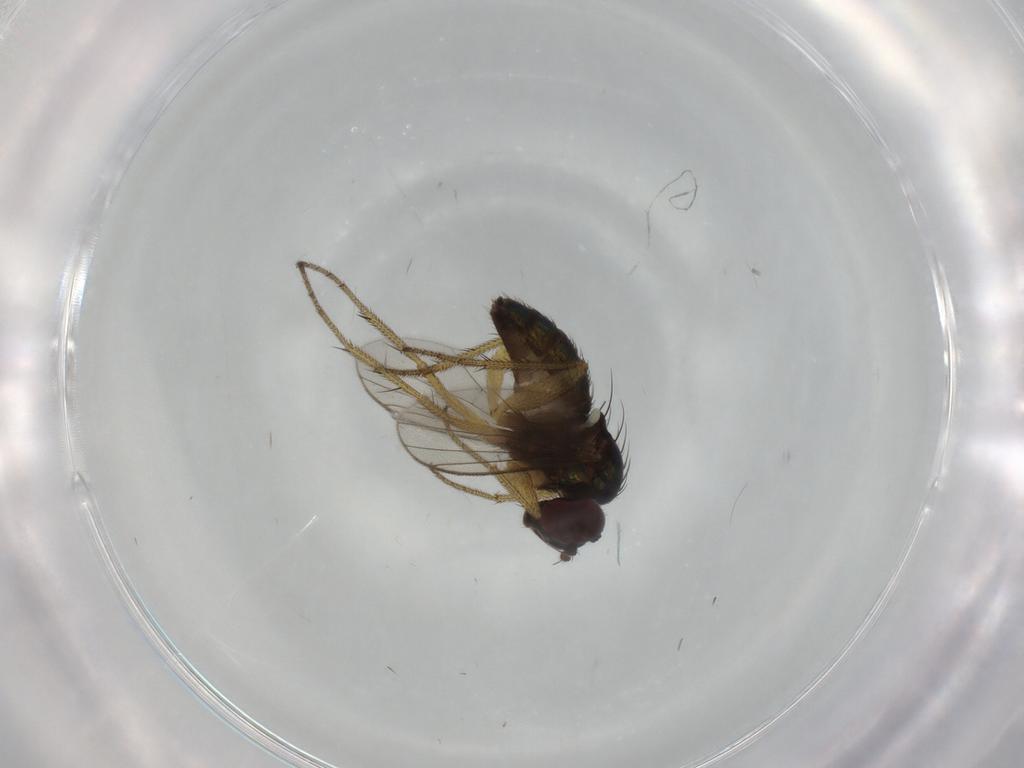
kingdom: Animalia
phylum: Arthropoda
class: Insecta
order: Diptera
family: Dolichopodidae
